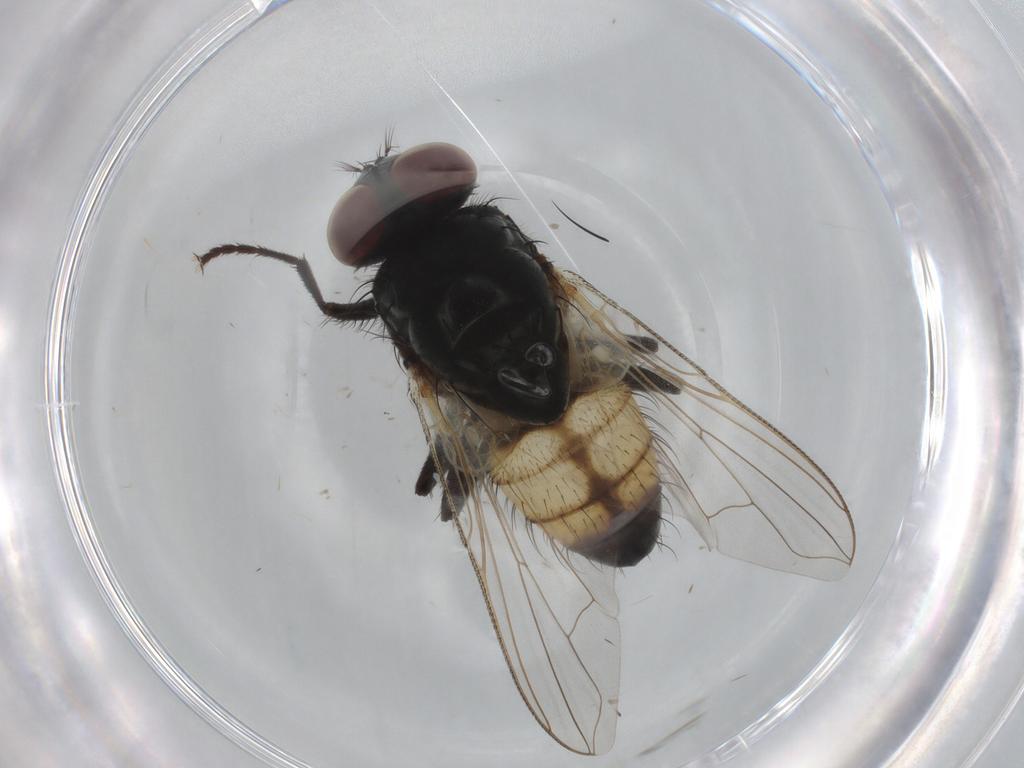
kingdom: Animalia
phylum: Arthropoda
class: Insecta
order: Diptera
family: Muscidae
